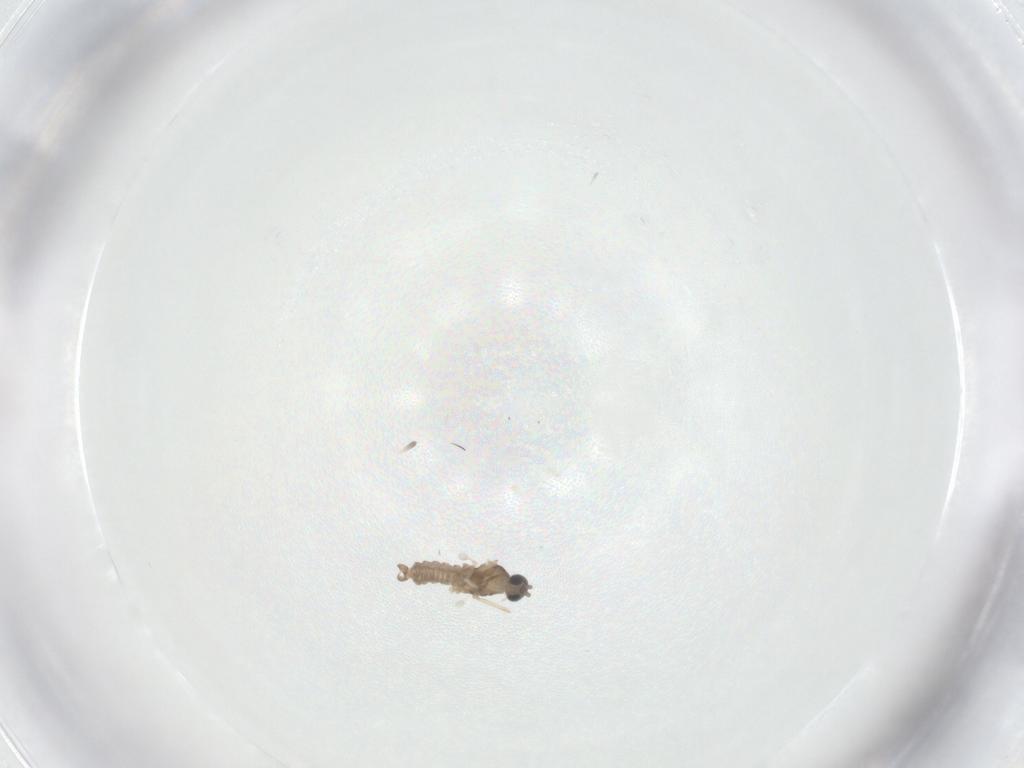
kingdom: Animalia
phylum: Arthropoda
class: Insecta
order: Diptera
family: Cecidomyiidae
